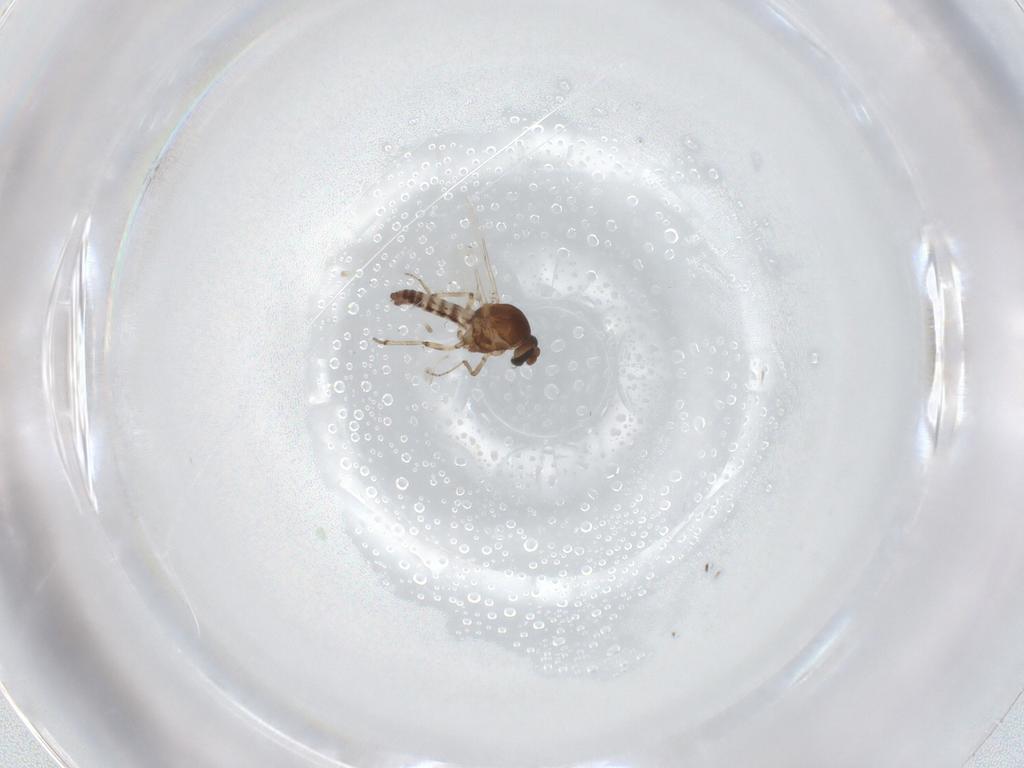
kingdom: Animalia
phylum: Arthropoda
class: Insecta
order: Diptera
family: Ceratopogonidae
